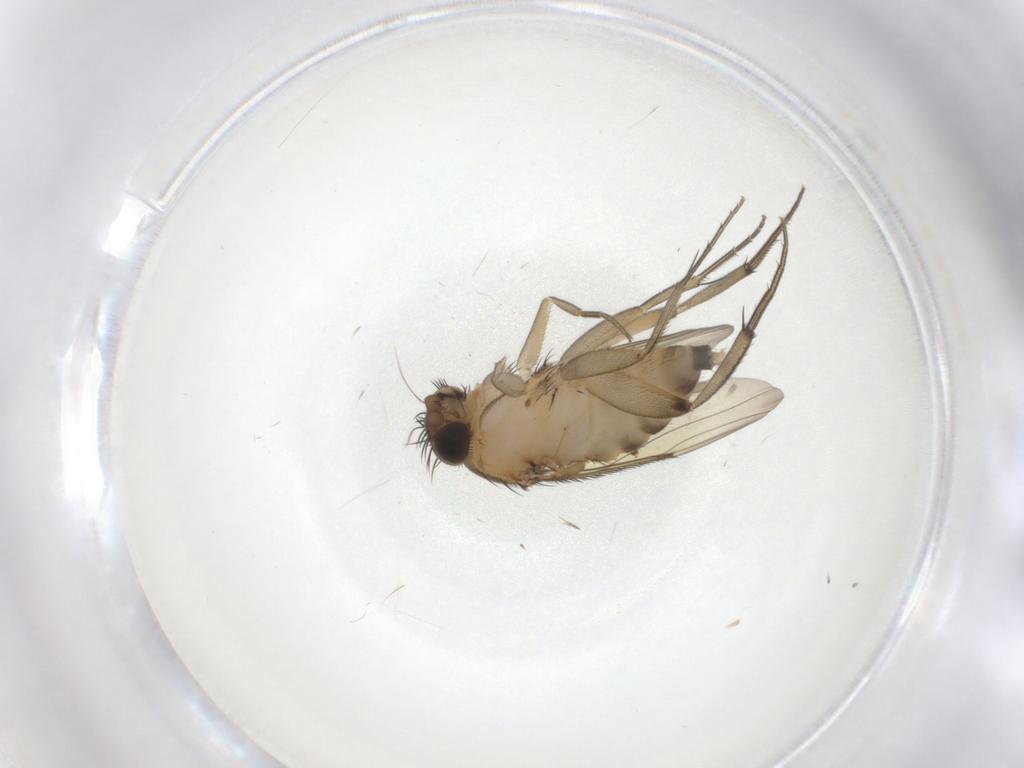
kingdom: Animalia
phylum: Arthropoda
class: Insecta
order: Diptera
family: Phoridae
